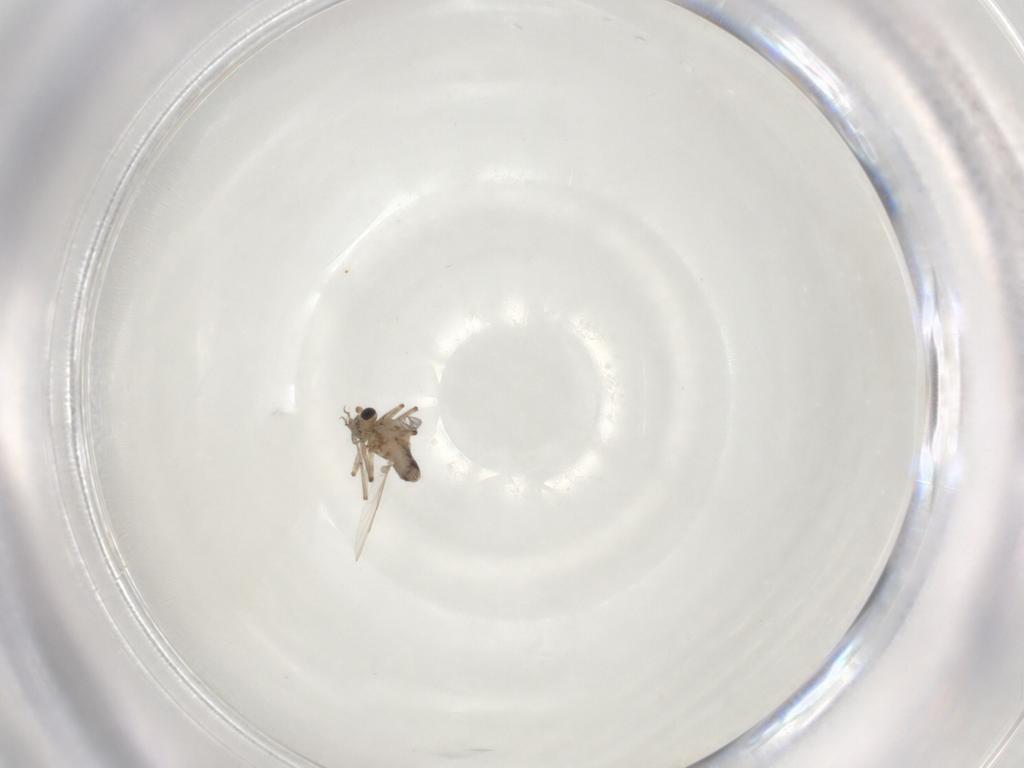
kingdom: Animalia
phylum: Arthropoda
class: Insecta
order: Diptera
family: Ceratopogonidae
